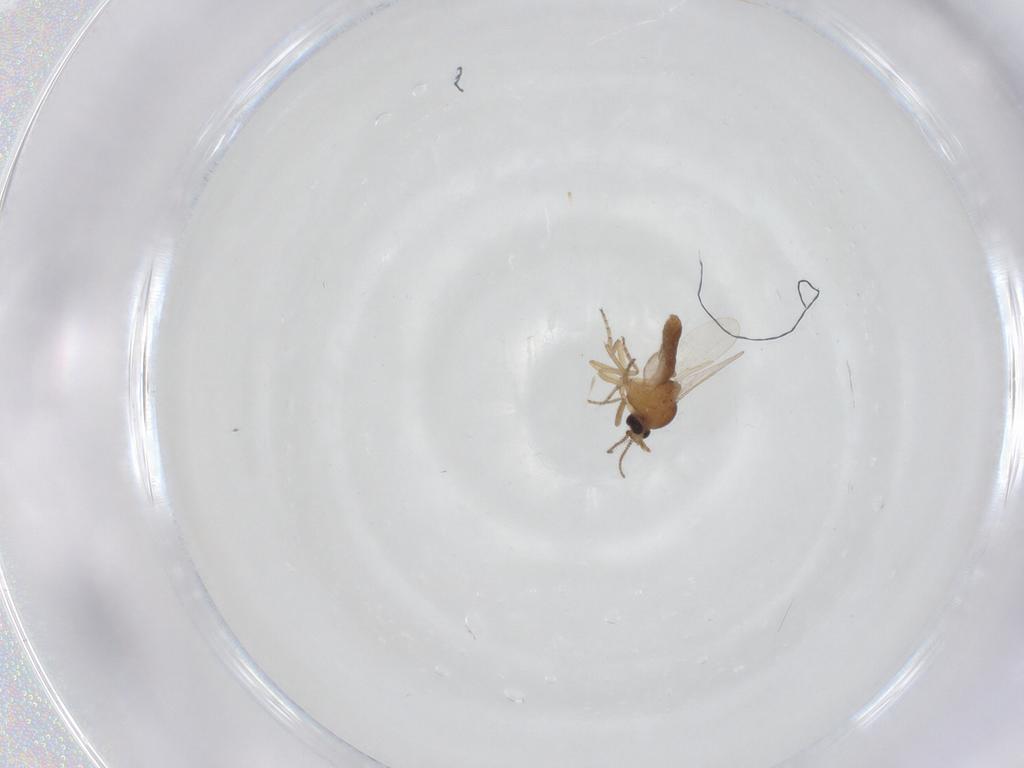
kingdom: Animalia
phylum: Arthropoda
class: Insecta
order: Diptera
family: Ceratopogonidae
